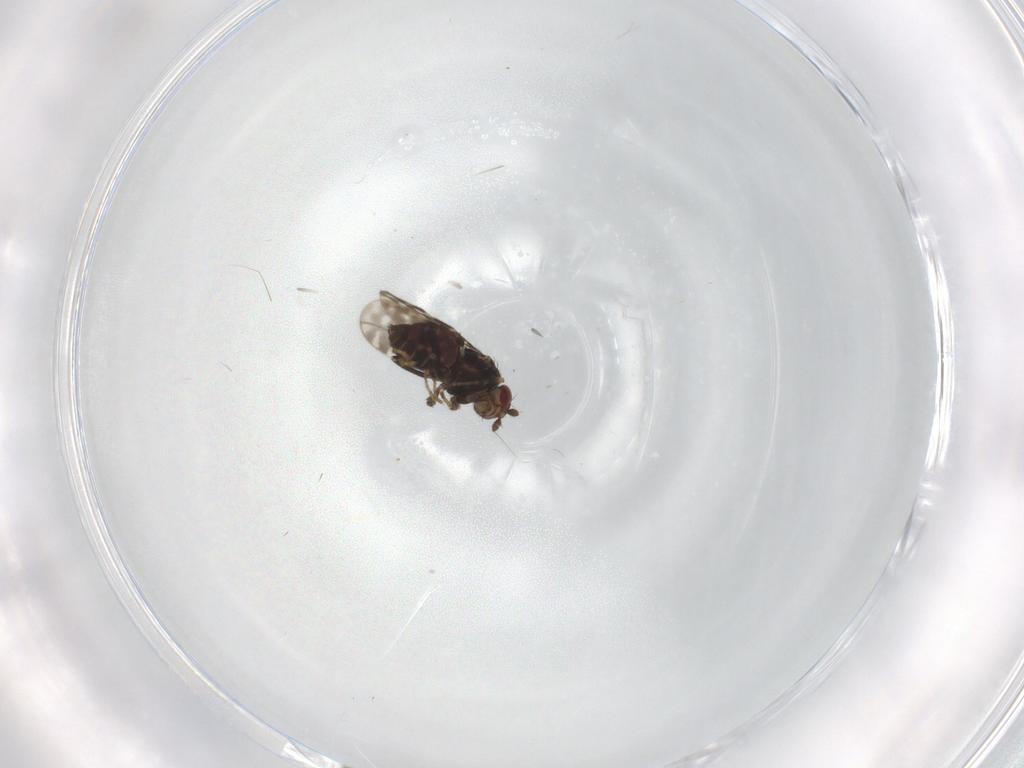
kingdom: Animalia
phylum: Arthropoda
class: Insecta
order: Diptera
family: Sphaeroceridae
